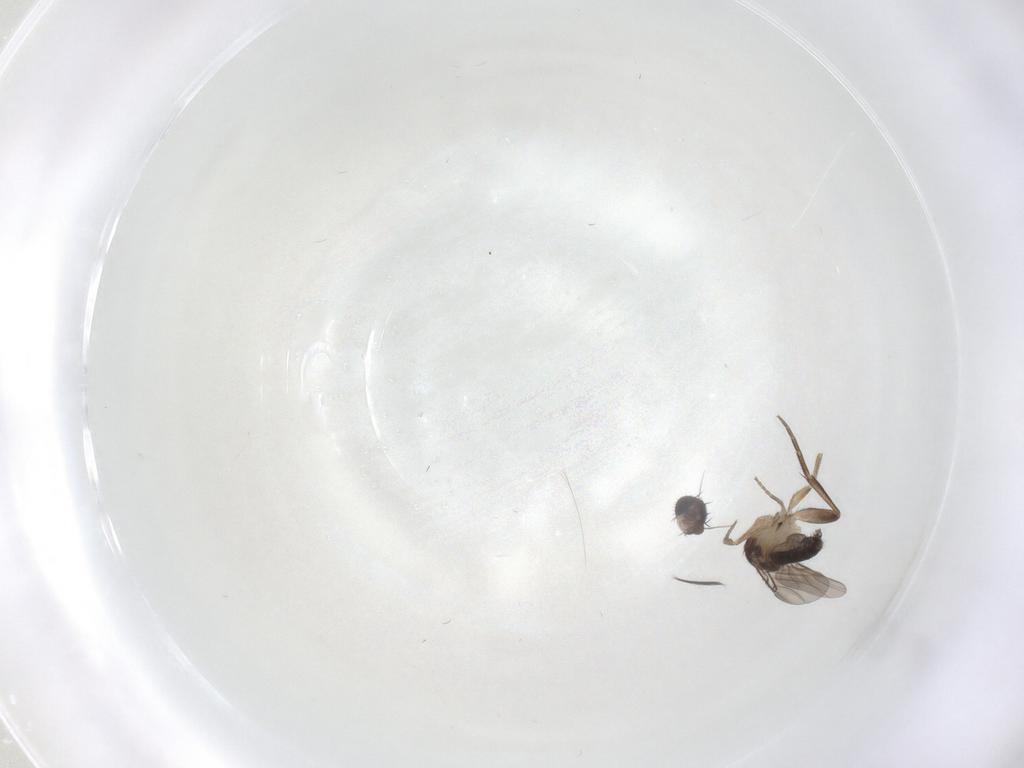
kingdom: Animalia
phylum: Arthropoda
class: Insecta
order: Diptera
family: Phoridae
